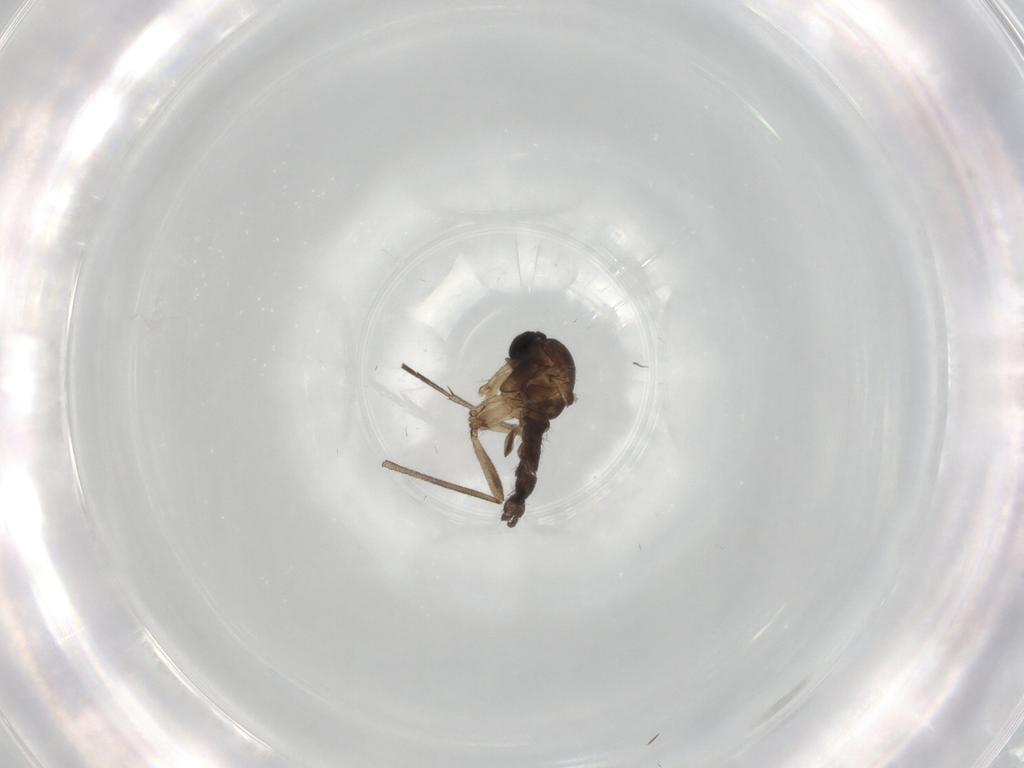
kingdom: Animalia
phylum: Arthropoda
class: Insecta
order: Diptera
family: Sciaridae
